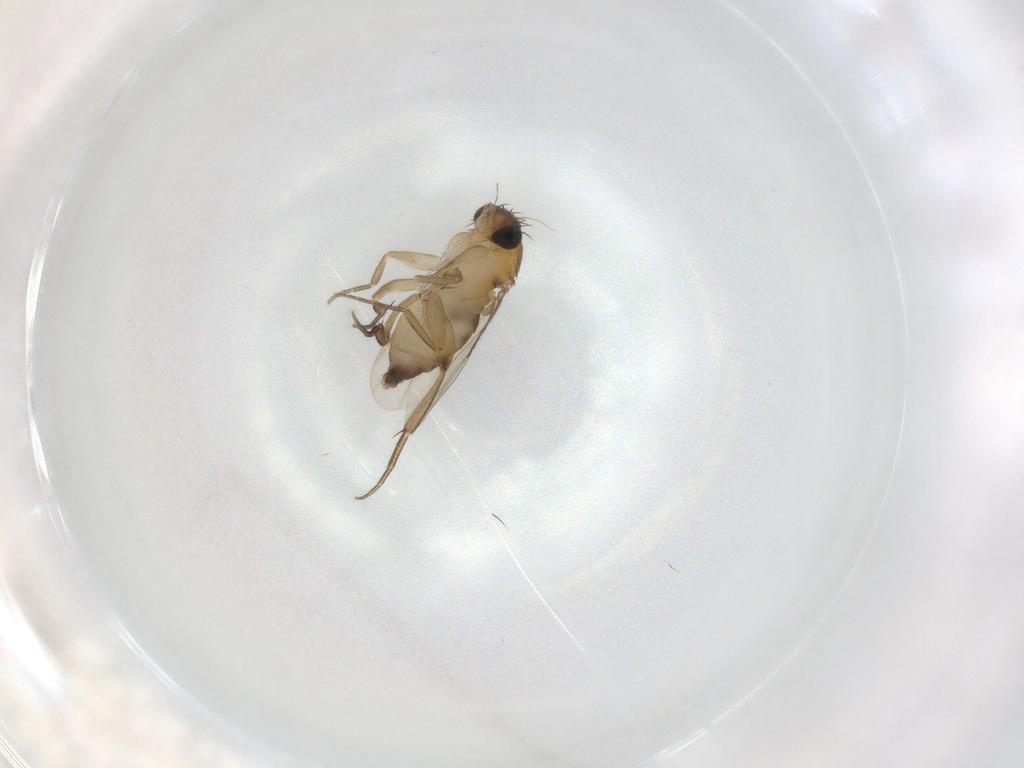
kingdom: Animalia
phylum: Arthropoda
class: Insecta
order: Diptera
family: Phoridae
